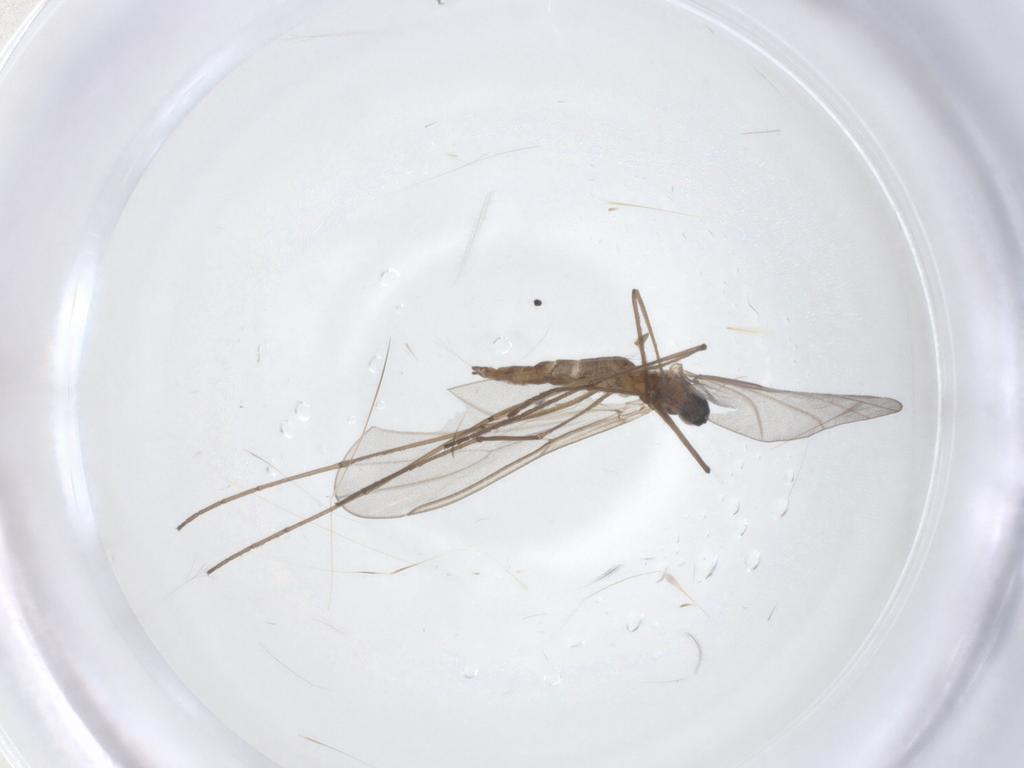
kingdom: Animalia
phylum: Arthropoda
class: Insecta
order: Diptera
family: Cecidomyiidae
